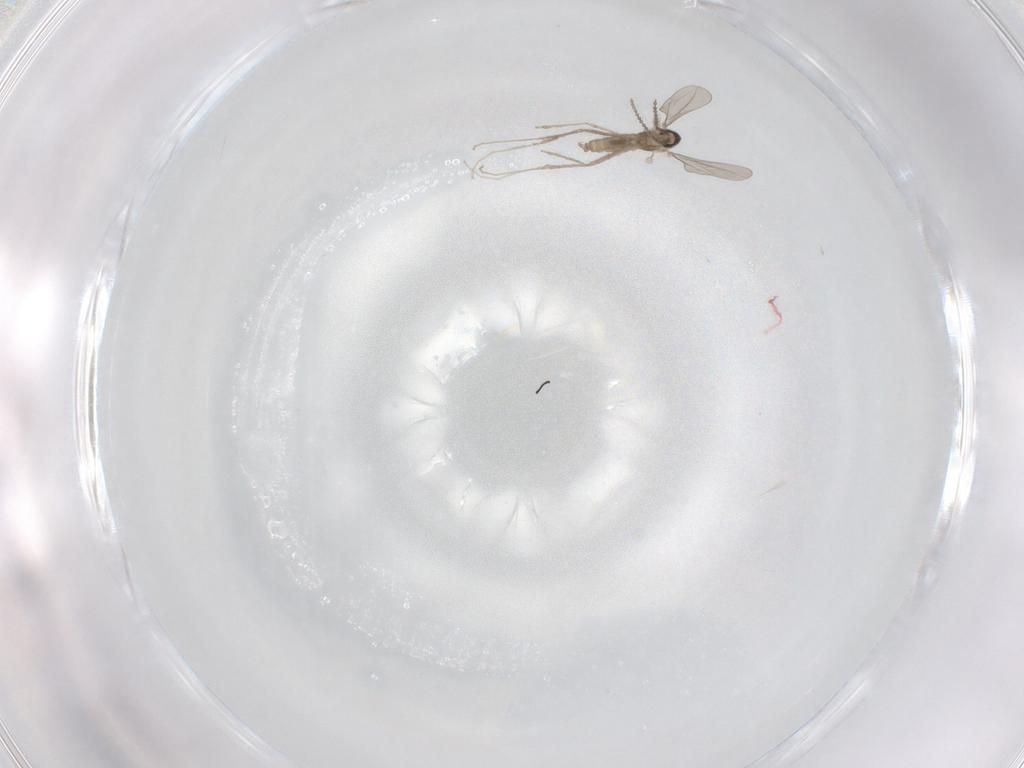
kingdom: Animalia
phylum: Arthropoda
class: Insecta
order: Diptera
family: Cecidomyiidae
